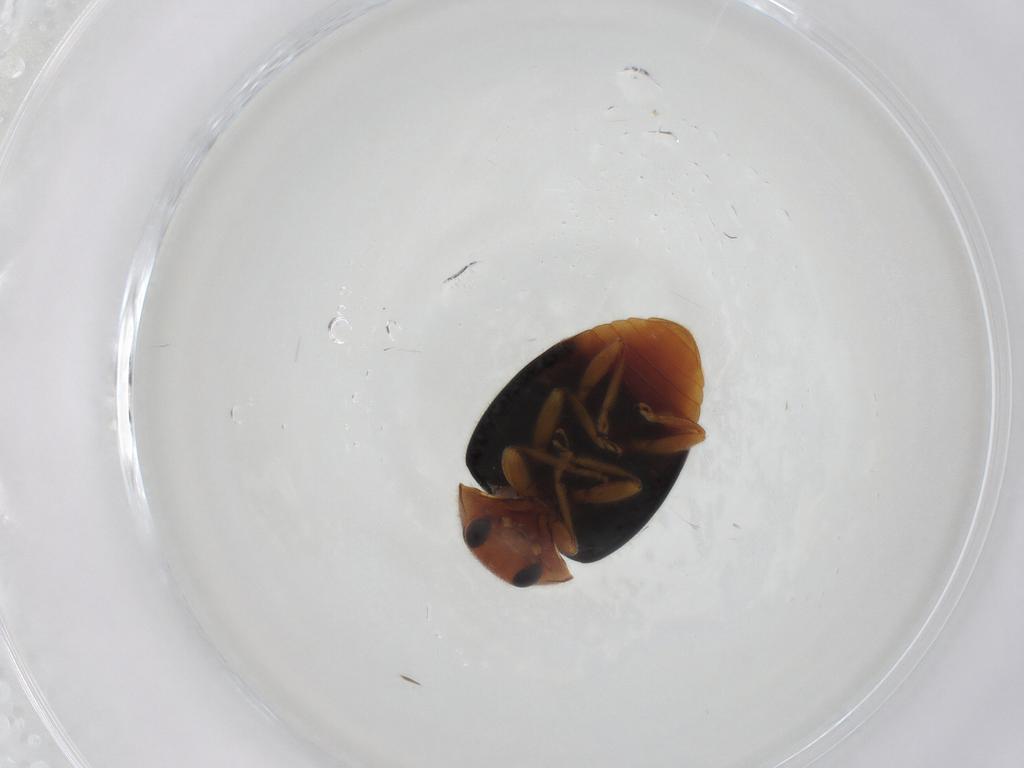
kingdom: Animalia
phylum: Arthropoda
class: Insecta
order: Coleoptera
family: Coccinellidae
